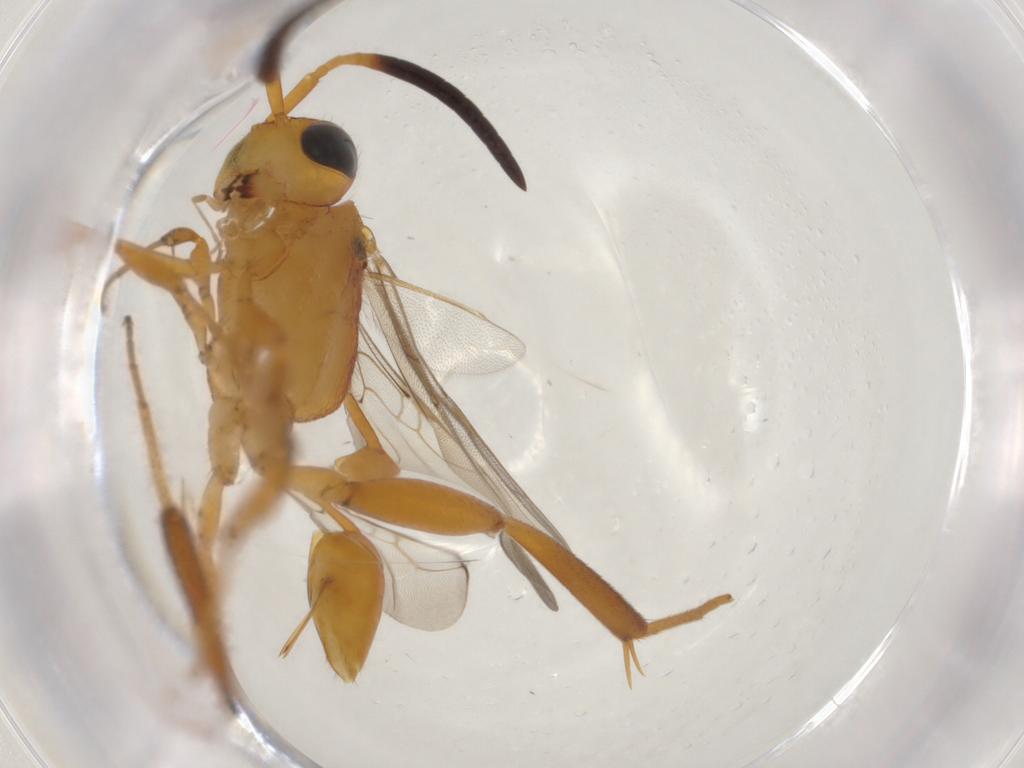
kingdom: Animalia
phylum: Arthropoda
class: Insecta
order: Hymenoptera
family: Evaniidae
